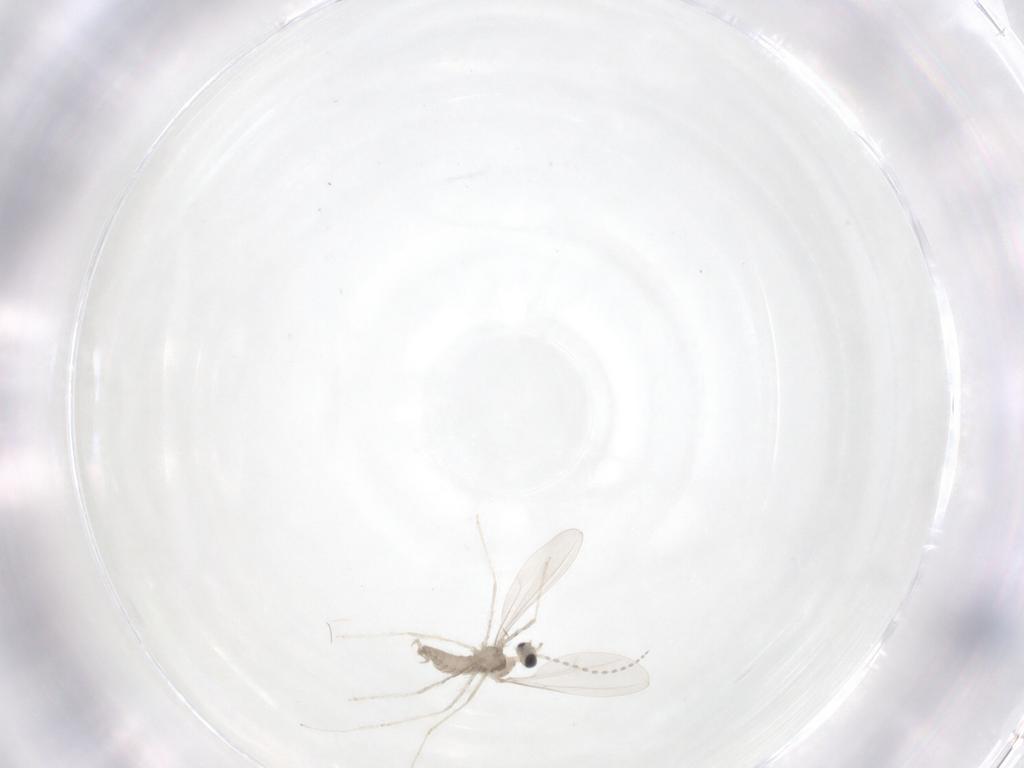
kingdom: Animalia
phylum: Arthropoda
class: Insecta
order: Diptera
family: Cecidomyiidae
